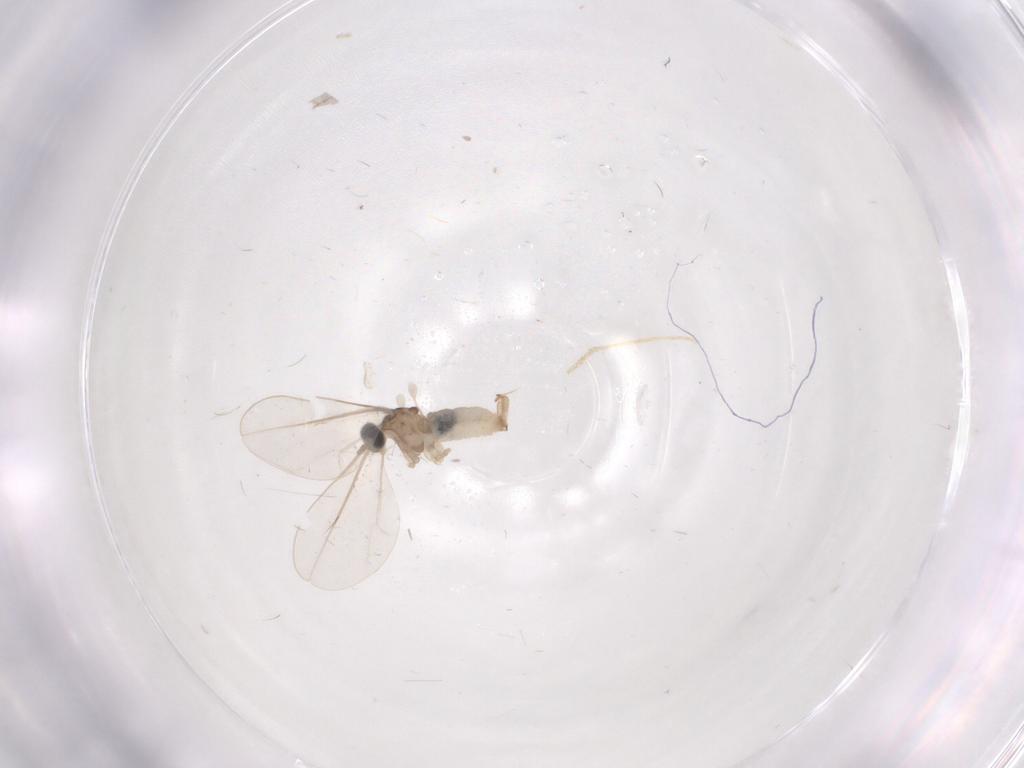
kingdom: Animalia
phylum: Arthropoda
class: Insecta
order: Diptera
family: Cecidomyiidae
